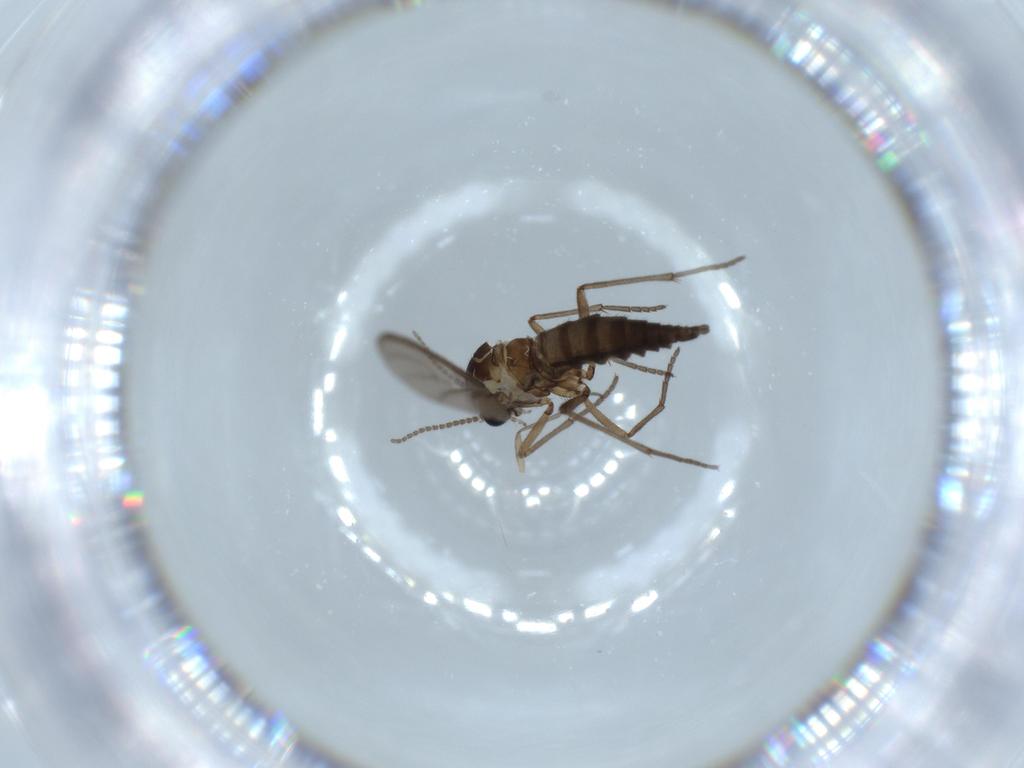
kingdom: Animalia
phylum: Arthropoda
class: Insecta
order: Diptera
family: Sciaridae
